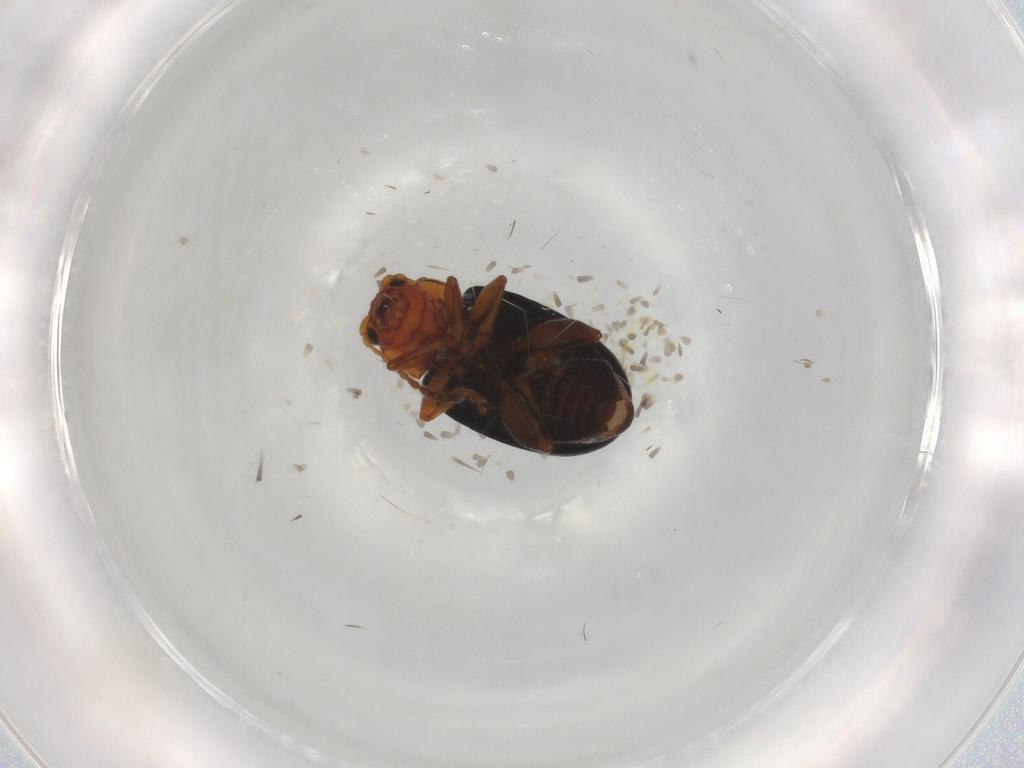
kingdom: Animalia
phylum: Arthropoda
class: Insecta
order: Coleoptera
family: Chrysomelidae
